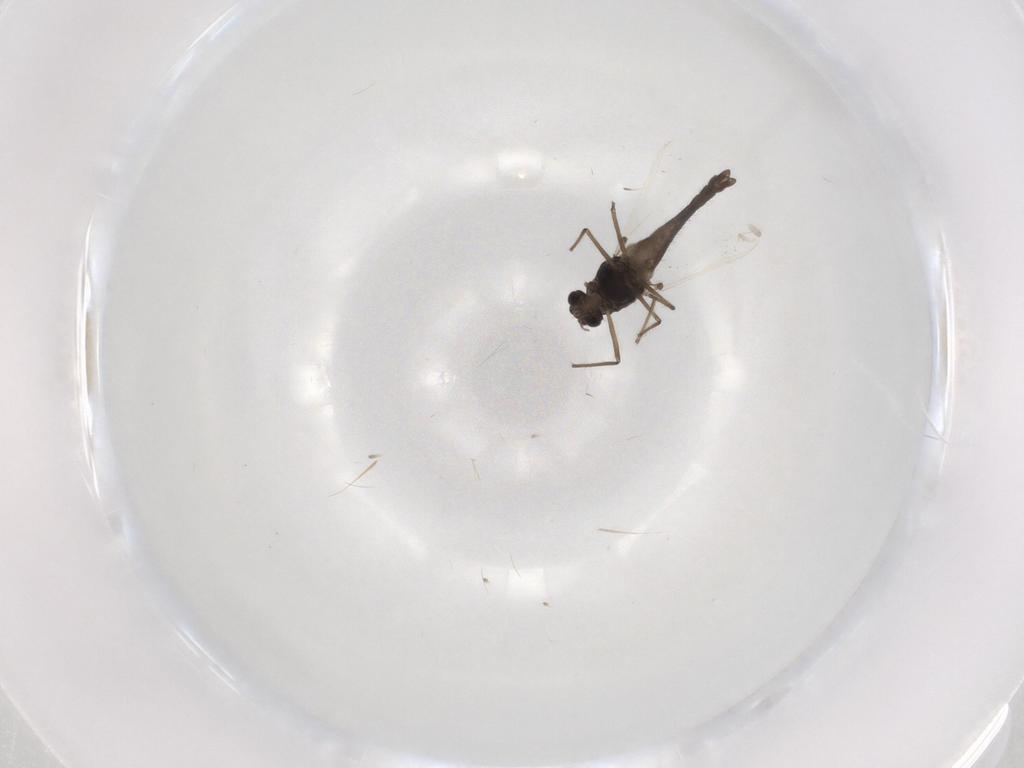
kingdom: Animalia
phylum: Arthropoda
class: Insecta
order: Diptera
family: Chironomidae
